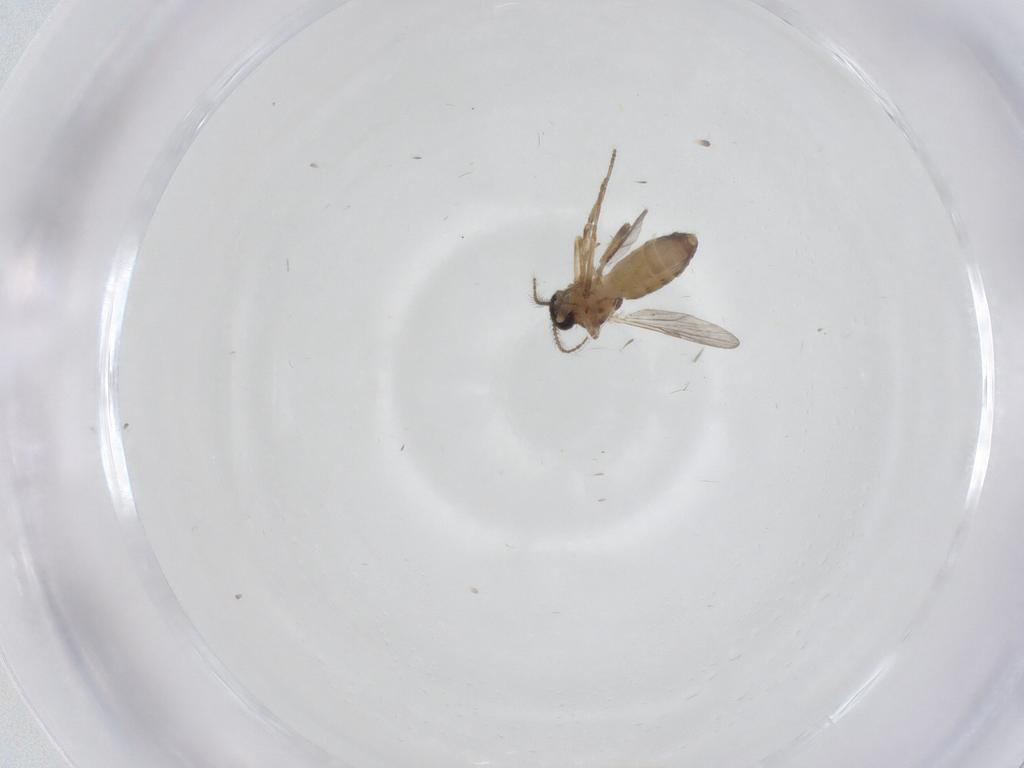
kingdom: Animalia
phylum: Arthropoda
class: Insecta
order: Diptera
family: Ceratopogonidae
